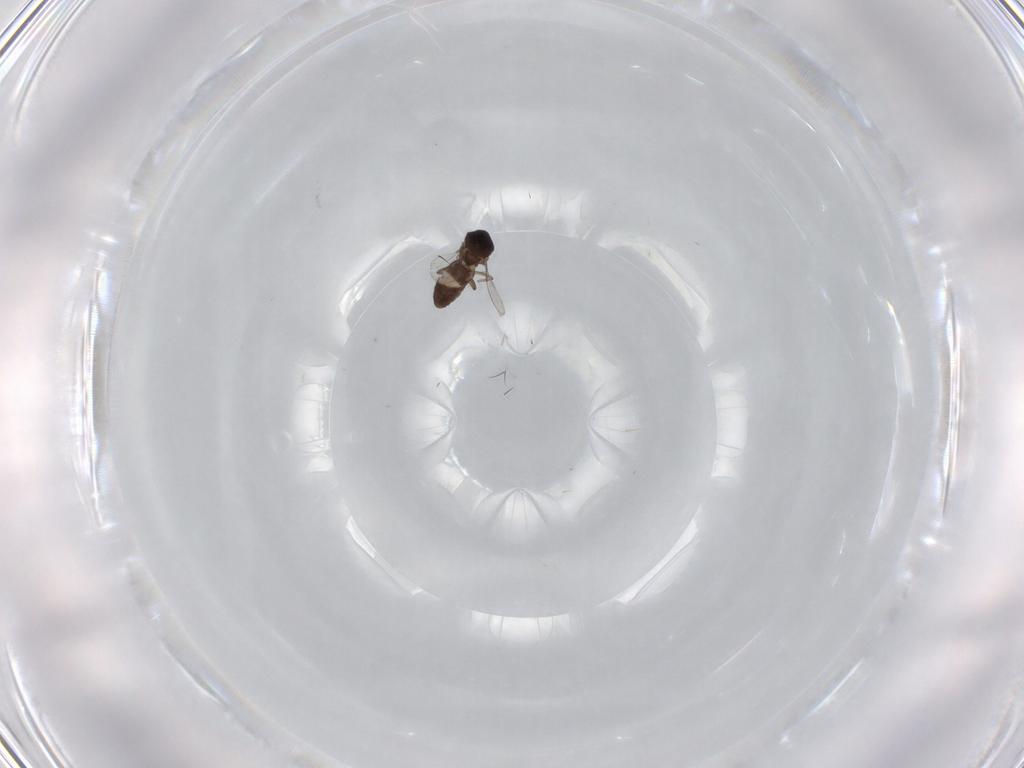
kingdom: Animalia
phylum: Arthropoda
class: Insecta
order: Diptera
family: Ceratopogonidae
